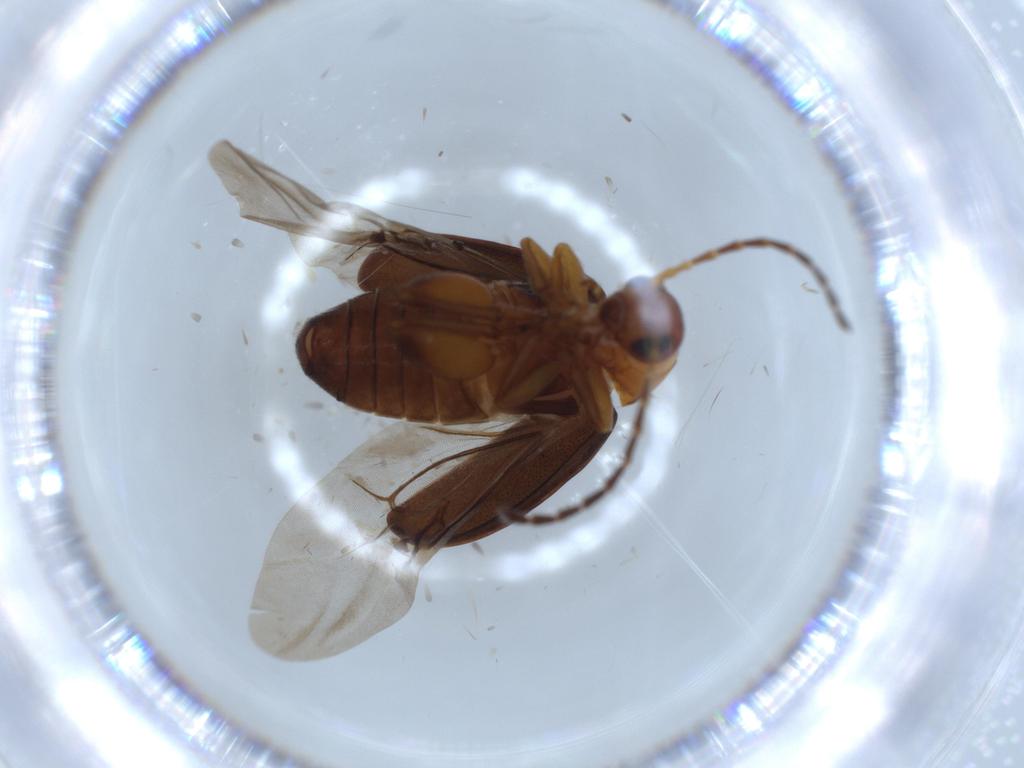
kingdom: Animalia
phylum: Arthropoda
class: Insecta
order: Coleoptera
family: Chrysomelidae
